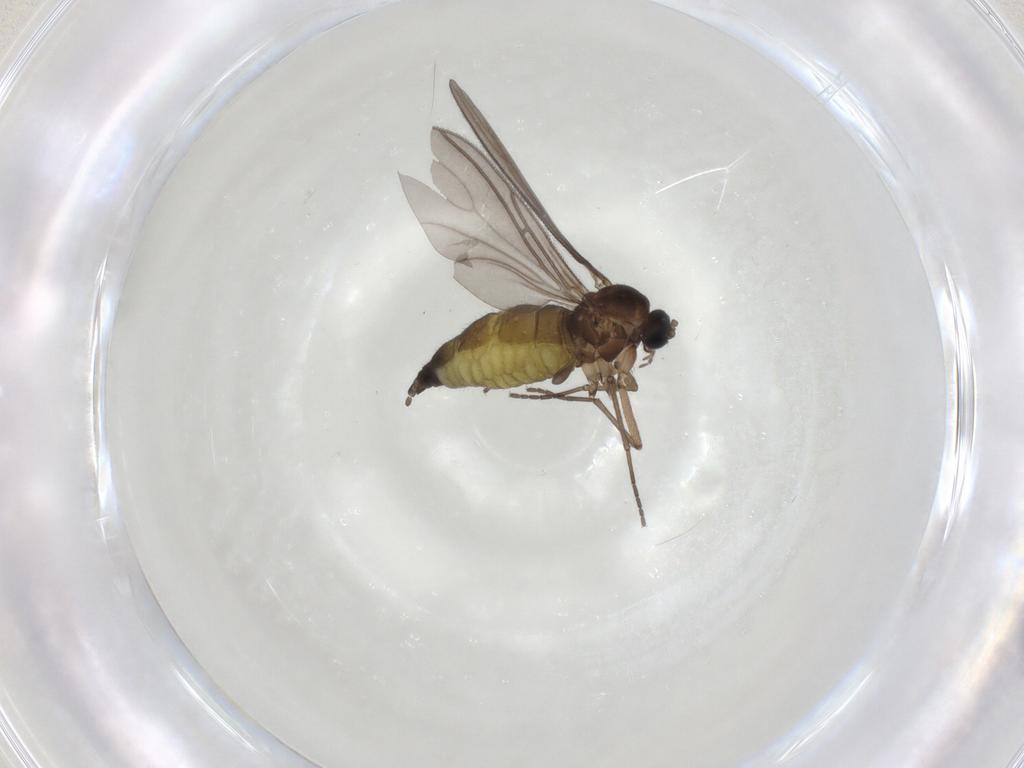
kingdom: Animalia
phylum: Arthropoda
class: Insecta
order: Diptera
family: Sciaridae
